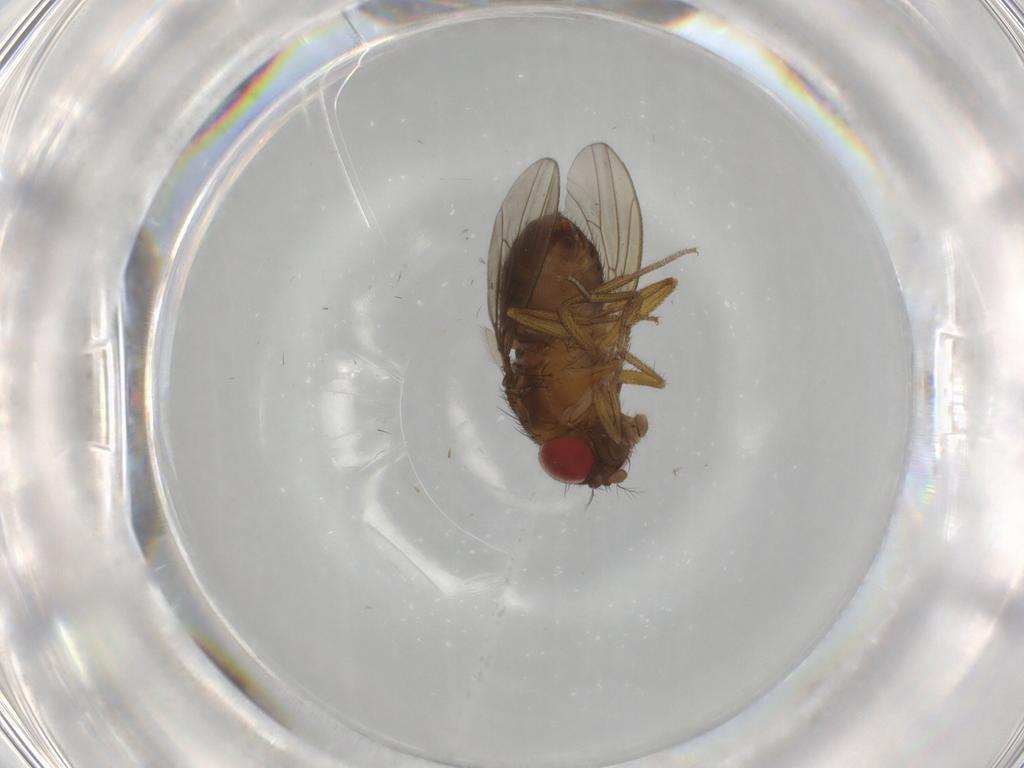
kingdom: Animalia
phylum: Arthropoda
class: Insecta
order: Diptera
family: Drosophilidae
